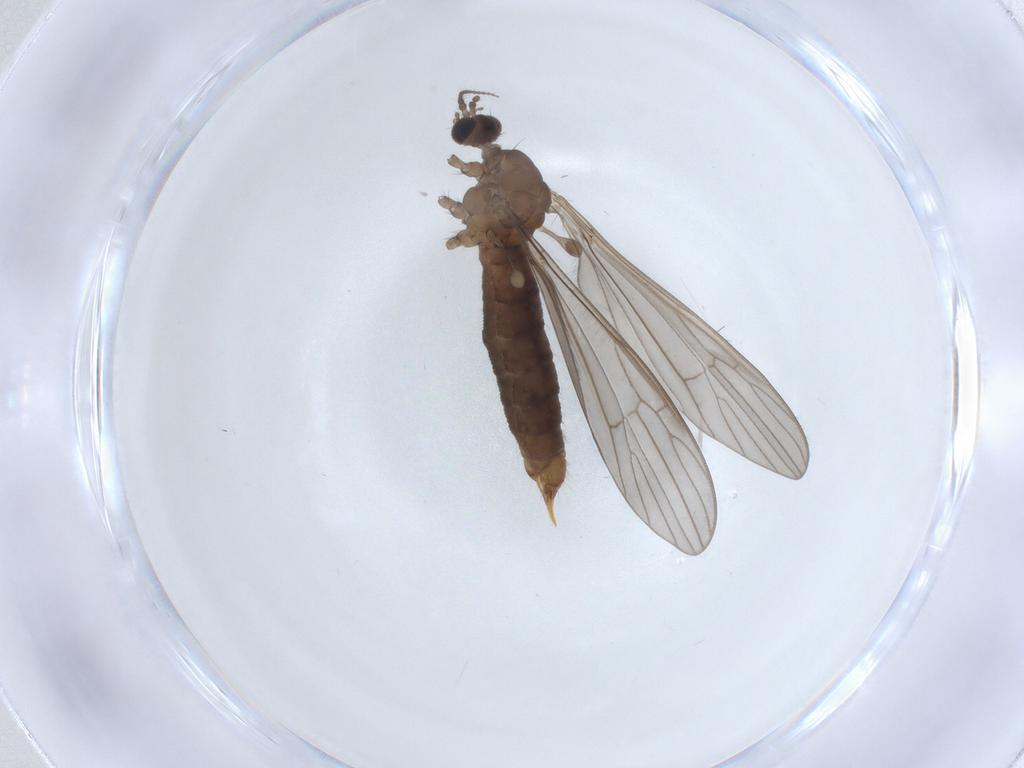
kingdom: Animalia
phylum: Arthropoda
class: Insecta
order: Diptera
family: Limoniidae
